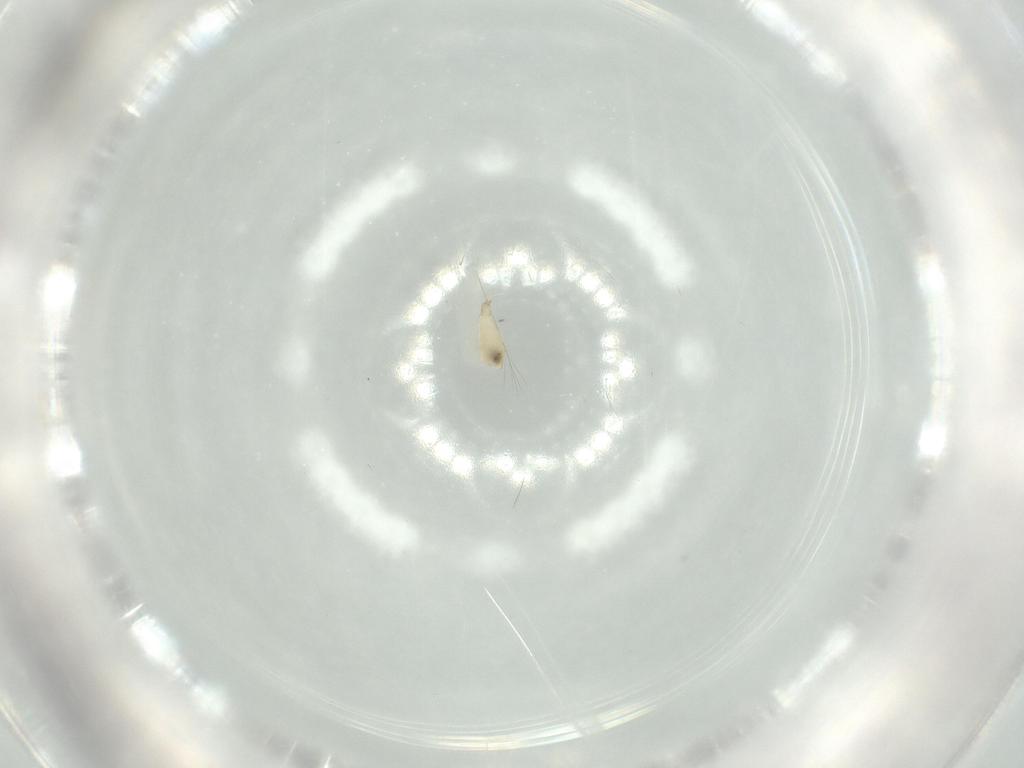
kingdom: Animalia
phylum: Arthropoda
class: Insecta
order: Diptera
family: Cecidomyiidae
